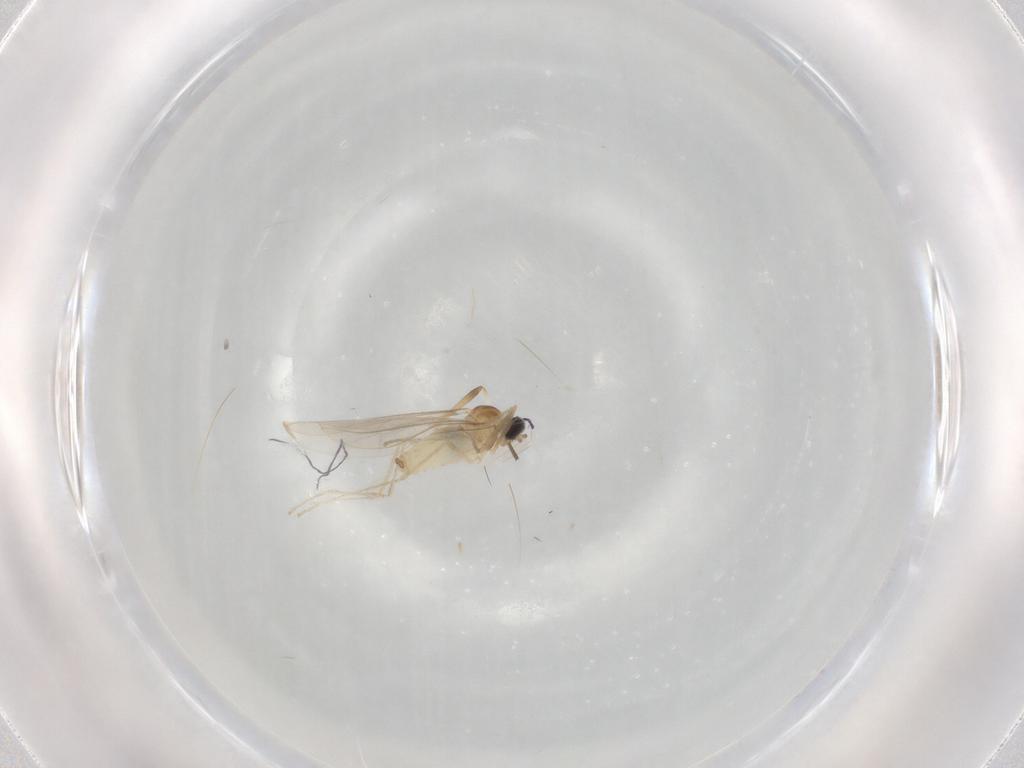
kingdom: Animalia
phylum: Arthropoda
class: Insecta
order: Diptera
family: Cecidomyiidae
